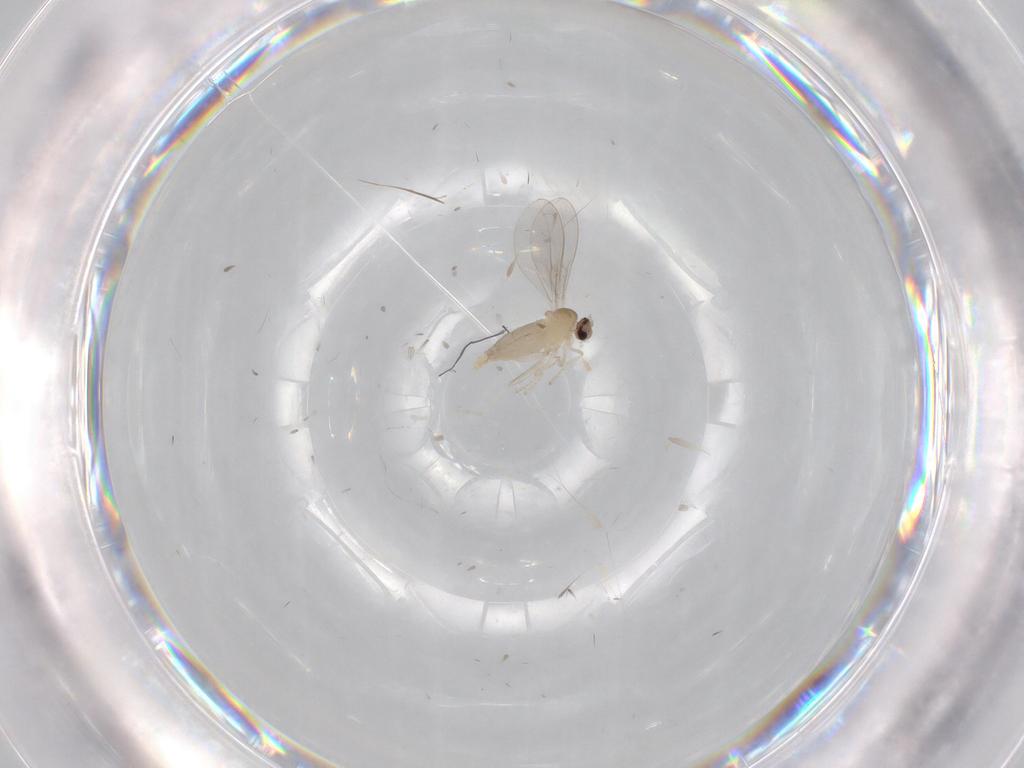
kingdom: Animalia
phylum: Arthropoda
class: Insecta
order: Diptera
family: Cecidomyiidae
